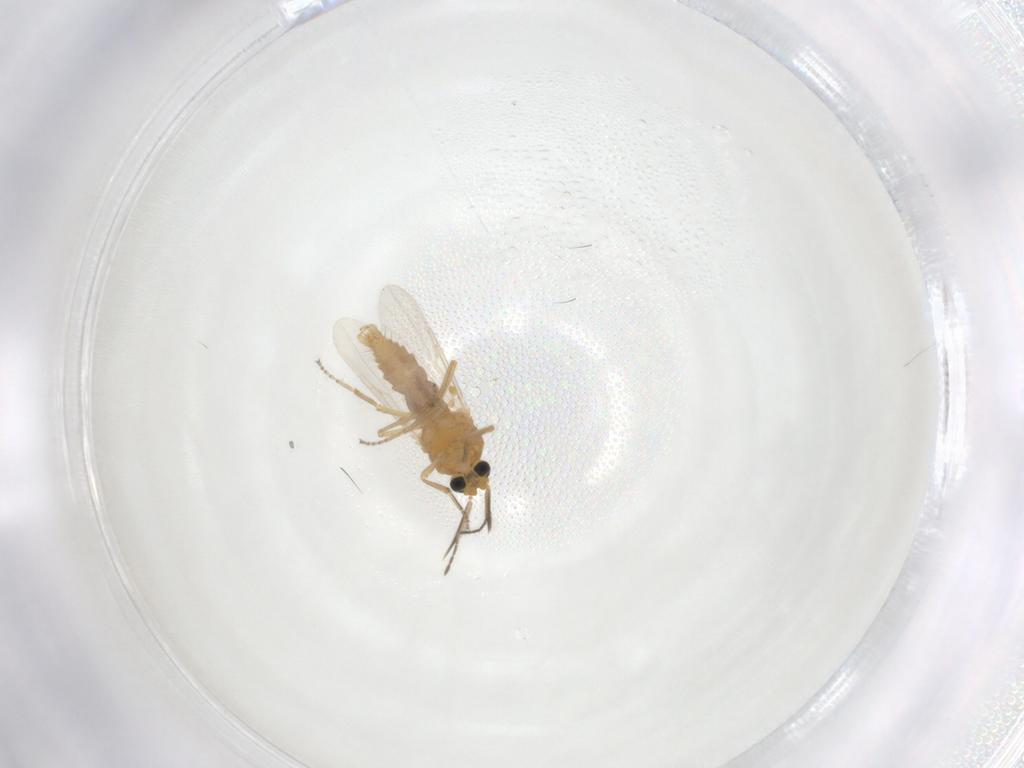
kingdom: Animalia
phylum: Arthropoda
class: Insecta
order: Diptera
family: Ceratopogonidae
